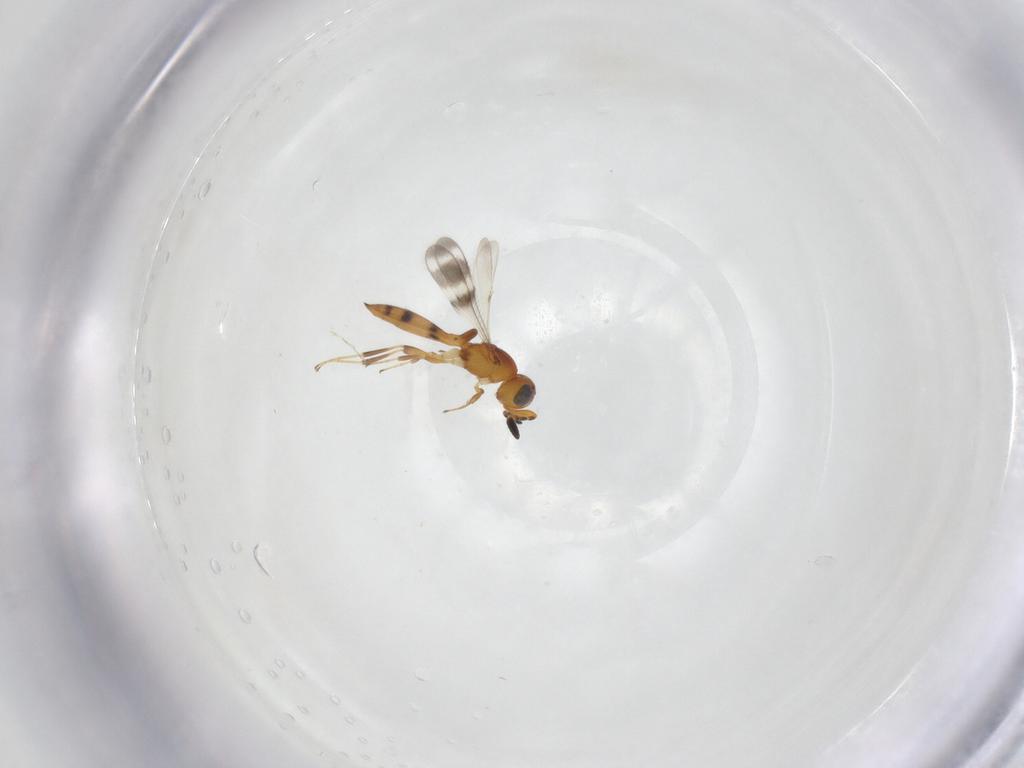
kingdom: Animalia
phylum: Arthropoda
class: Insecta
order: Hymenoptera
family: Scelionidae
